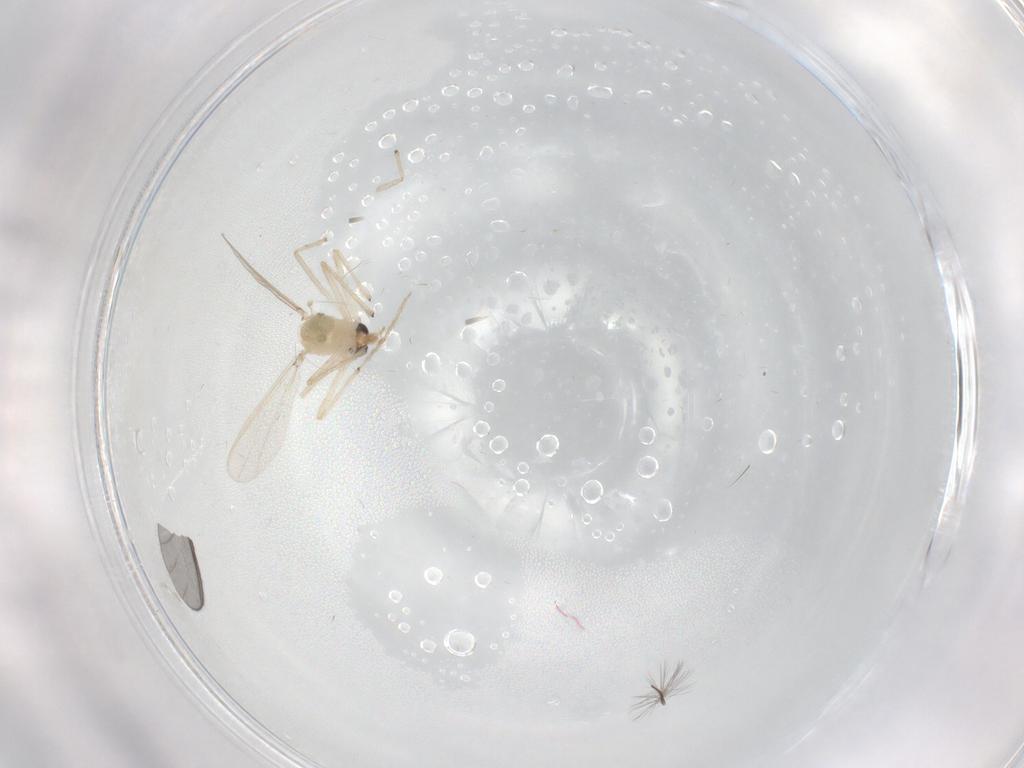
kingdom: Animalia
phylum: Arthropoda
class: Insecta
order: Diptera
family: Chironomidae
